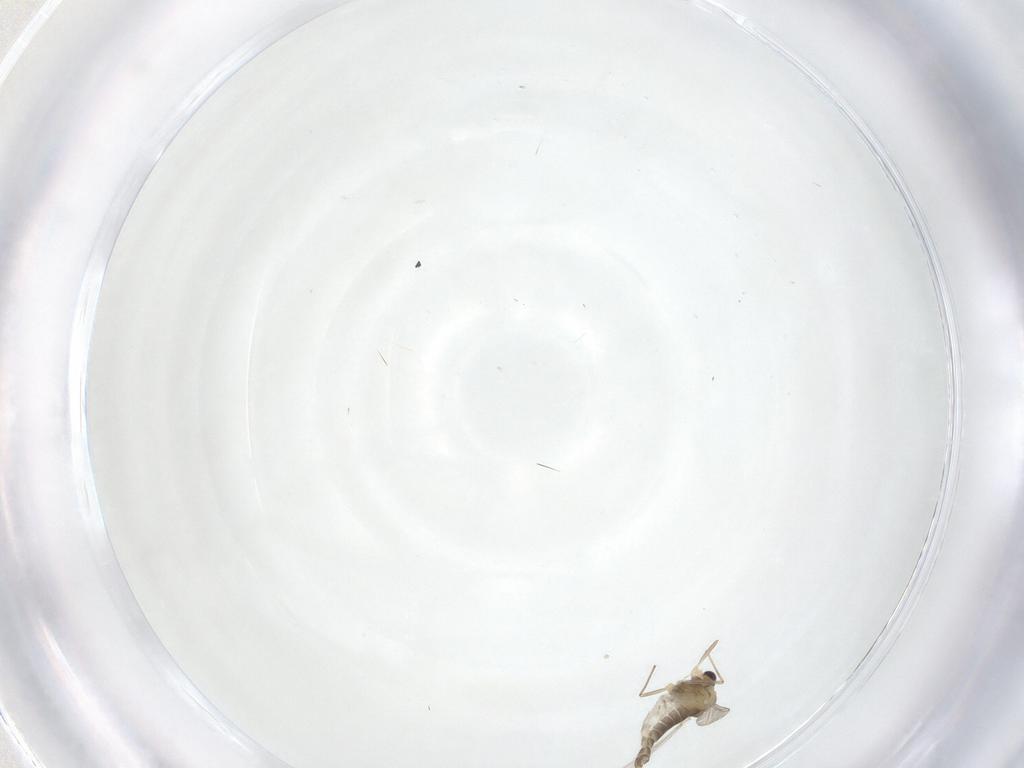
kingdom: Animalia
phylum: Arthropoda
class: Insecta
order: Diptera
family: Chironomidae
